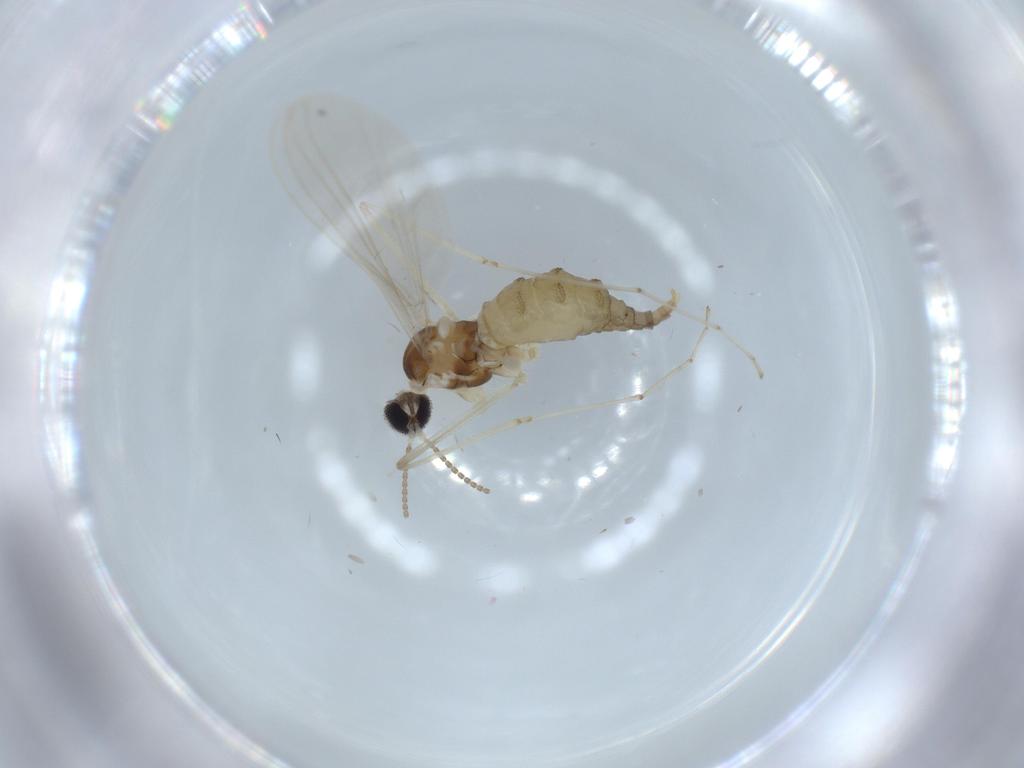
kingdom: Animalia
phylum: Arthropoda
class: Insecta
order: Diptera
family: Cecidomyiidae
